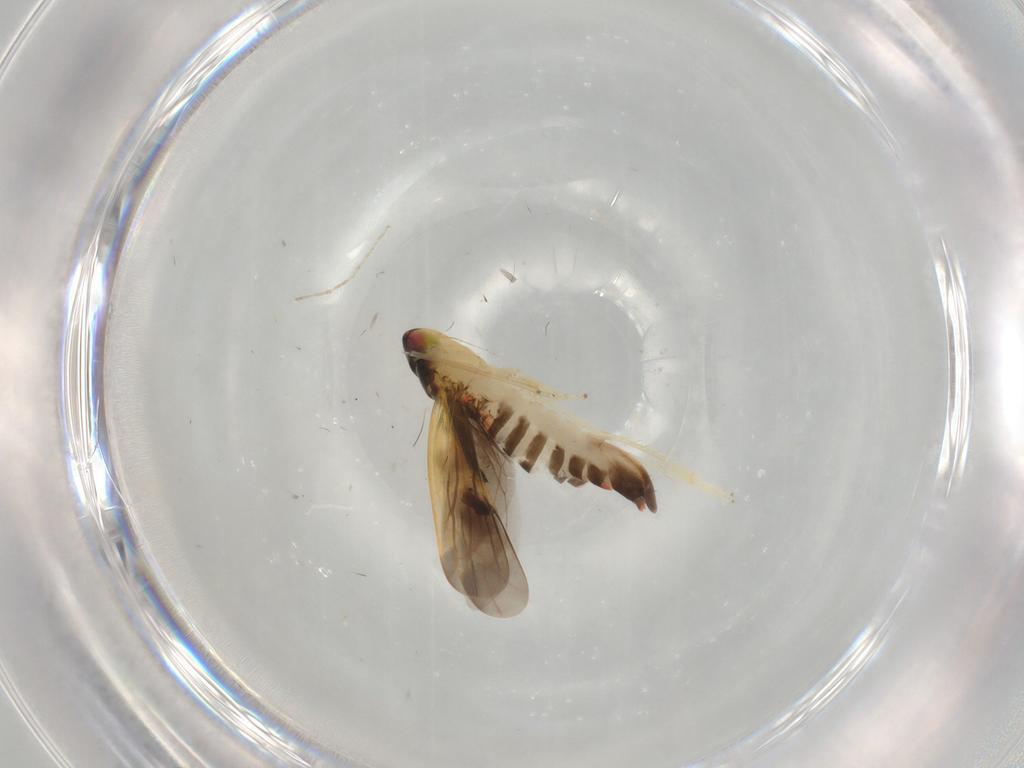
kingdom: Animalia
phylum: Arthropoda
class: Insecta
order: Hemiptera
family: Cicadellidae
